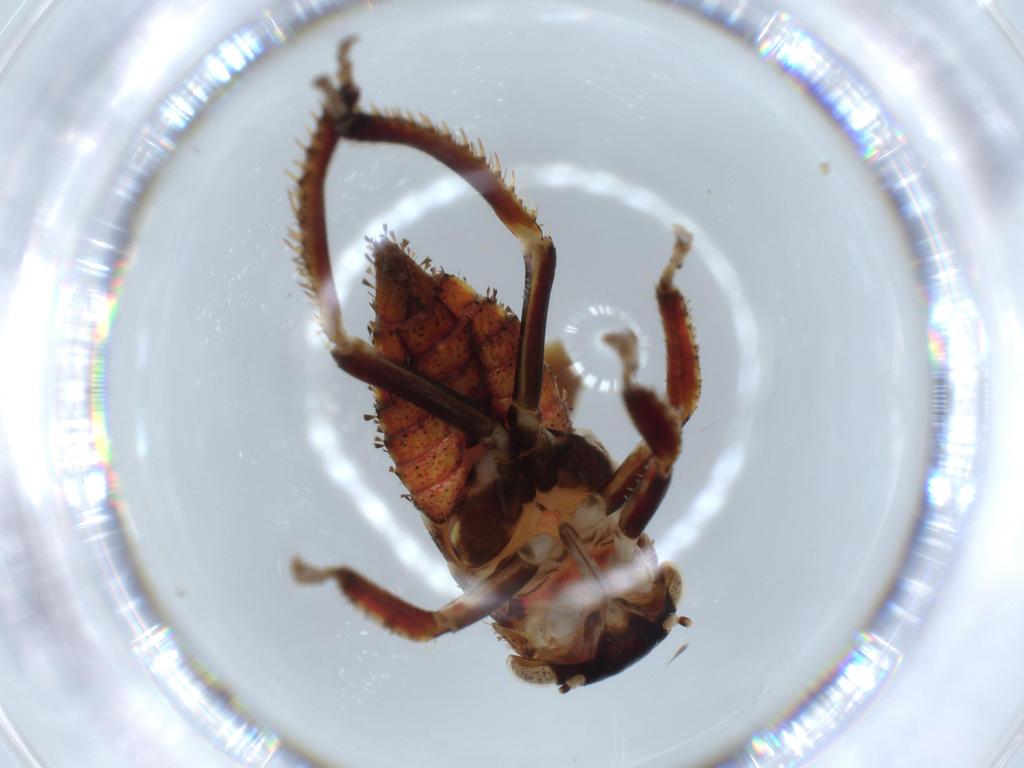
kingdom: Animalia
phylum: Arthropoda
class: Insecta
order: Hemiptera
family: Cicadellidae
